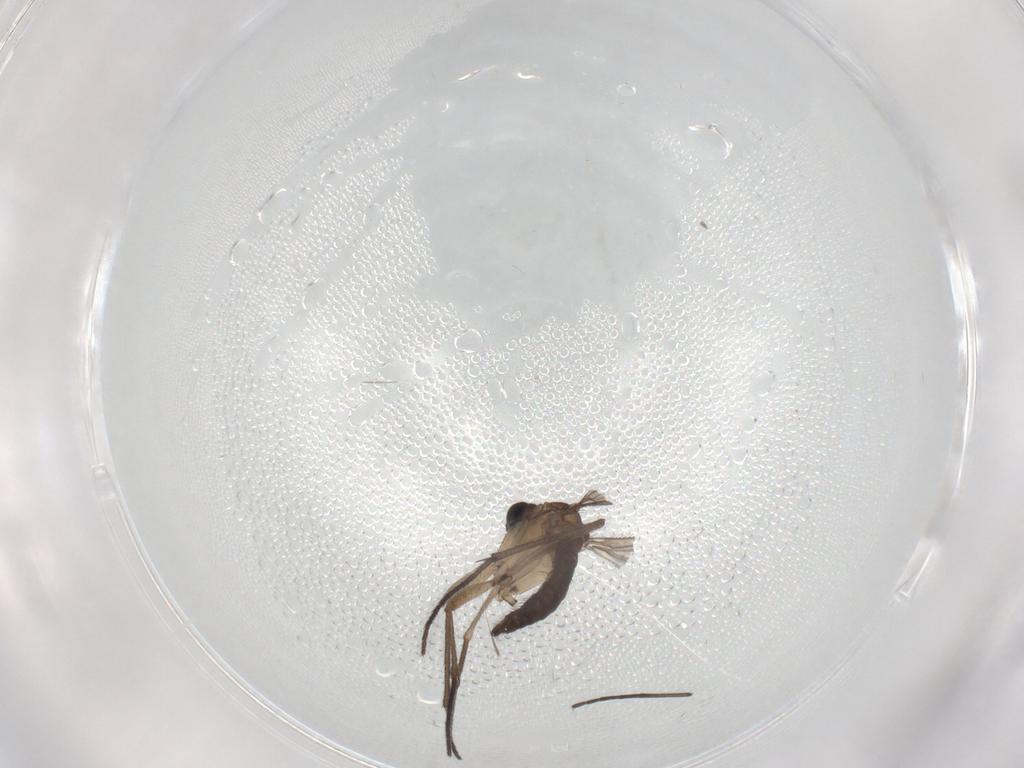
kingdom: Animalia
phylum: Arthropoda
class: Insecta
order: Diptera
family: Sciaridae
